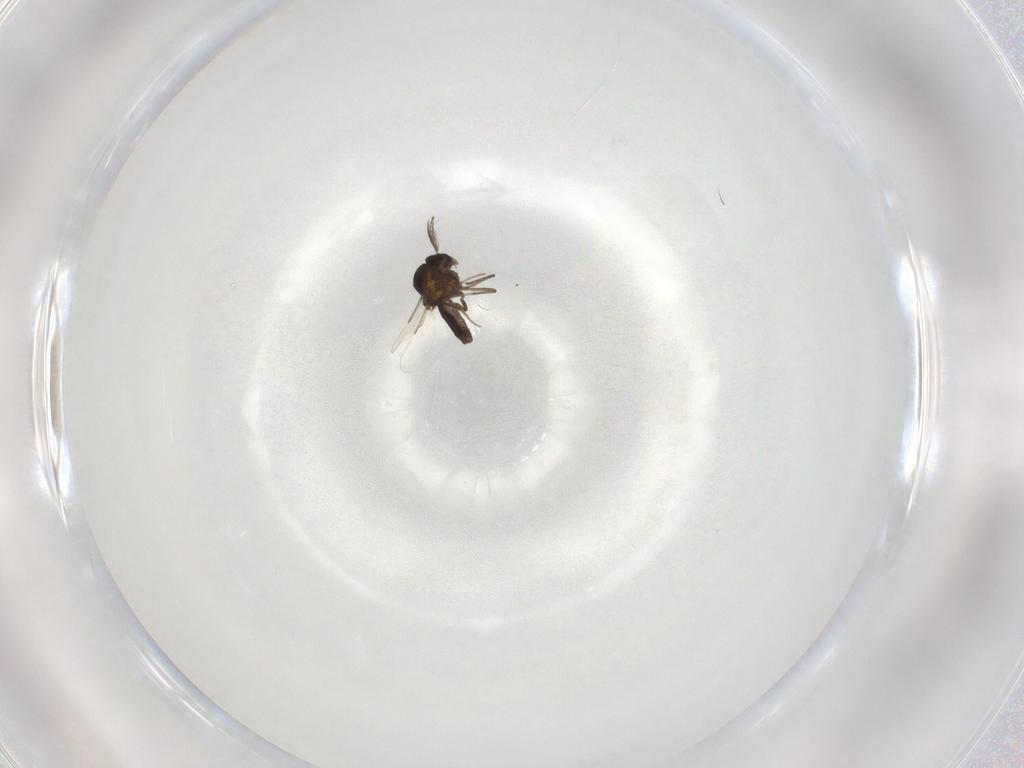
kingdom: Animalia
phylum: Arthropoda
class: Insecta
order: Diptera
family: Ceratopogonidae
